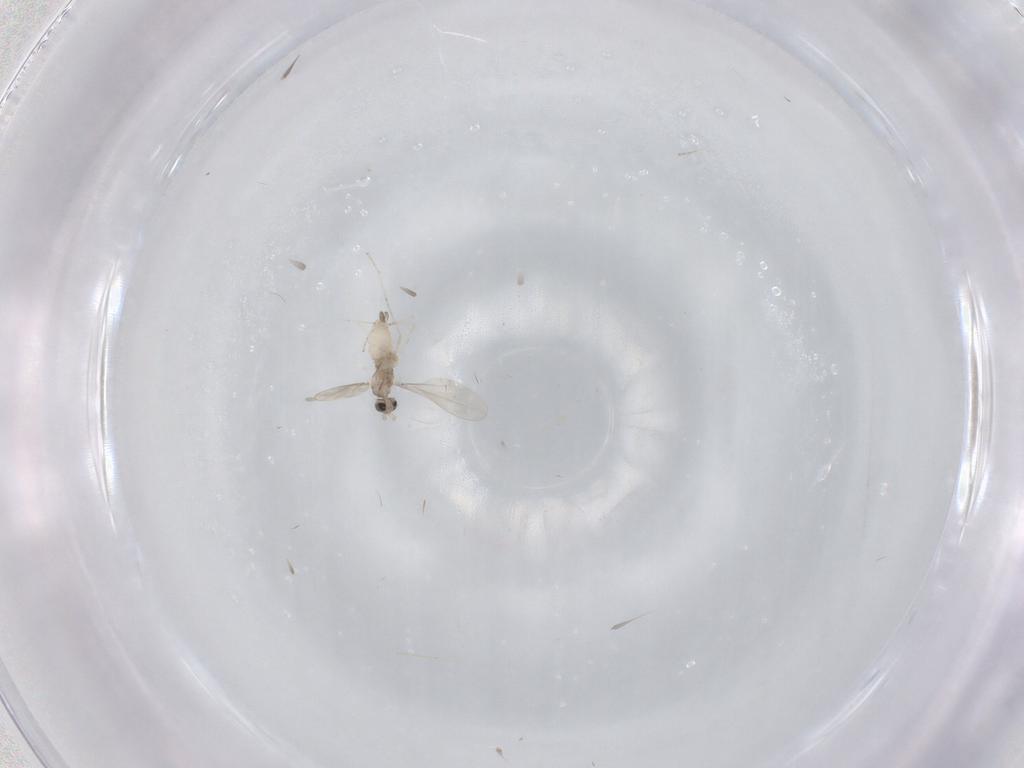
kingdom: Animalia
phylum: Arthropoda
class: Insecta
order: Diptera
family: Cecidomyiidae
